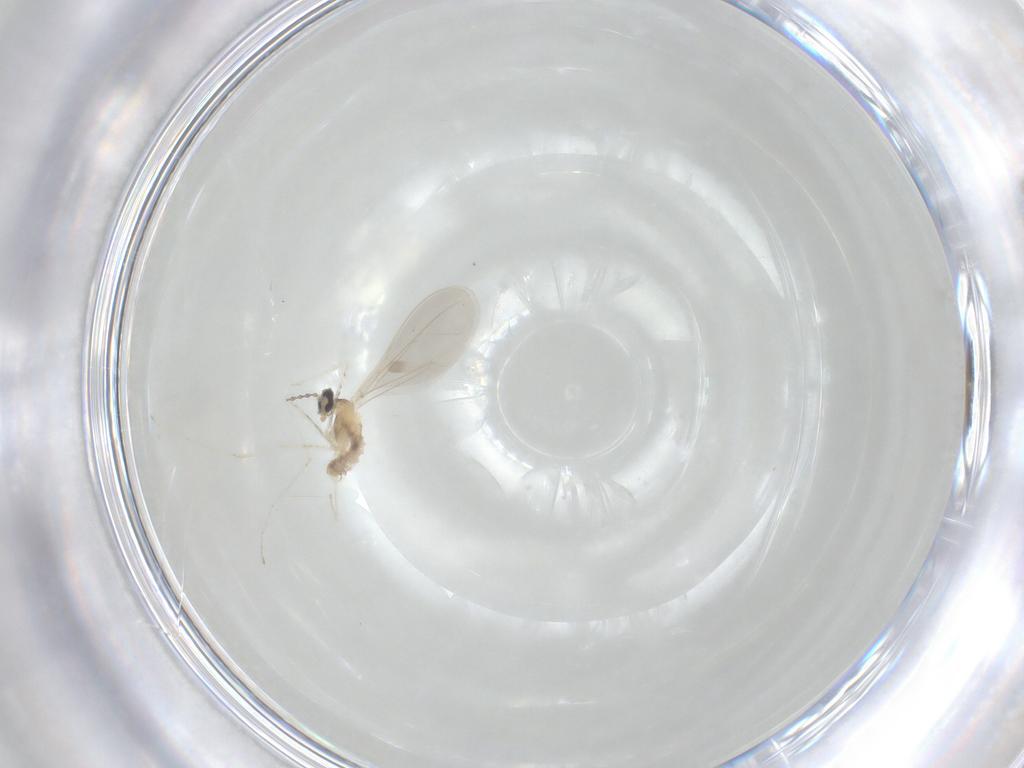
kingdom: Animalia
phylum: Arthropoda
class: Insecta
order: Diptera
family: Cecidomyiidae
